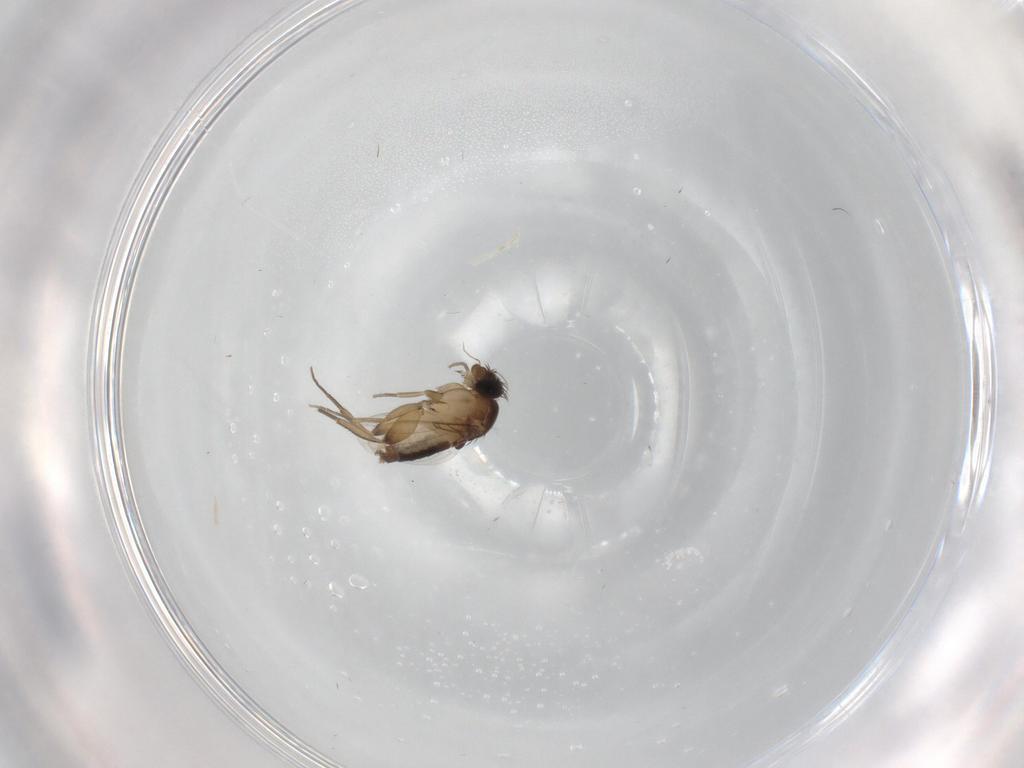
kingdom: Animalia
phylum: Arthropoda
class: Insecta
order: Diptera
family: Phoridae
